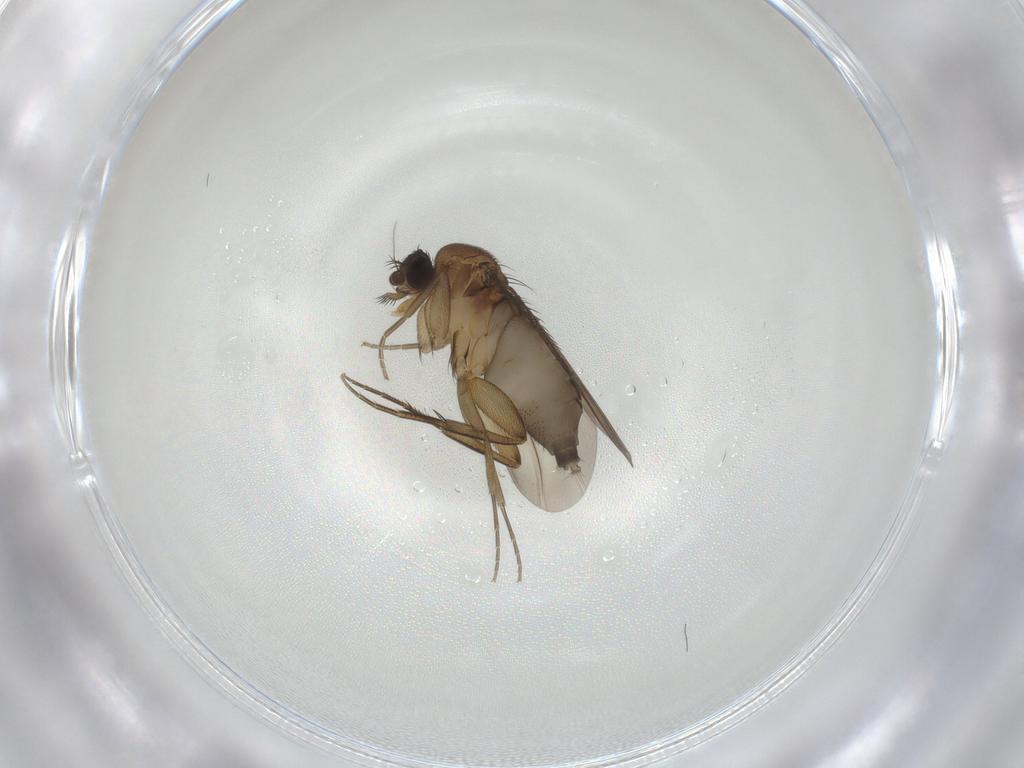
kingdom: Animalia
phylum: Arthropoda
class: Insecta
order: Diptera
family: Phoridae
